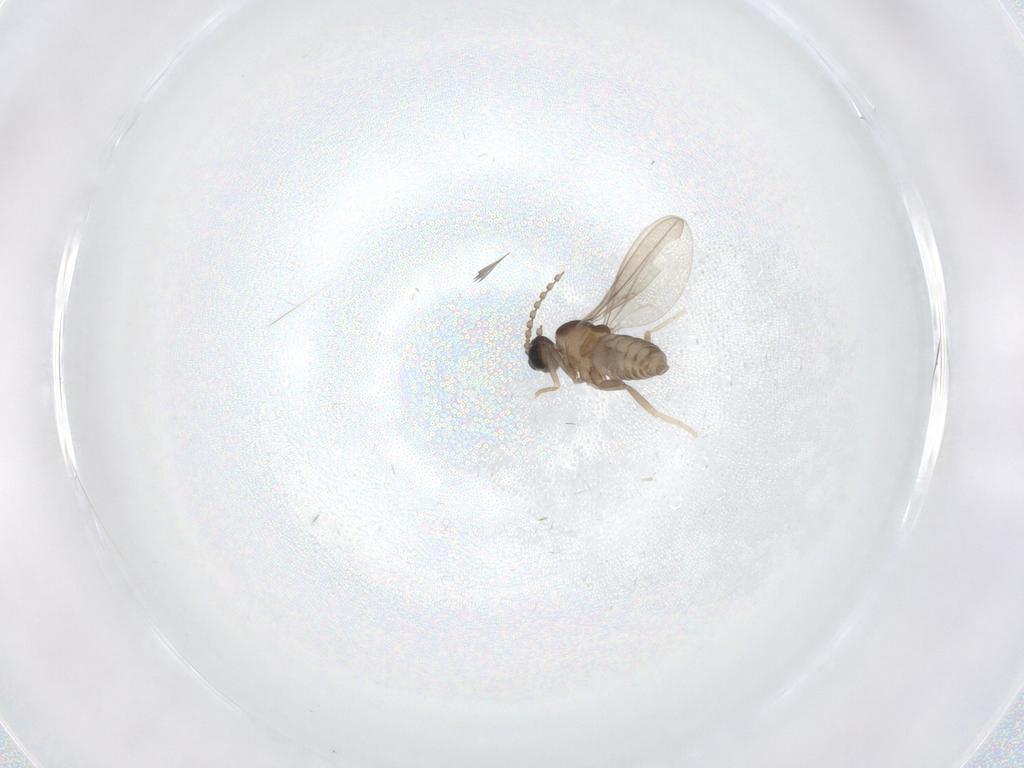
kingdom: Animalia
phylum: Arthropoda
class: Insecta
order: Diptera
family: Cecidomyiidae
